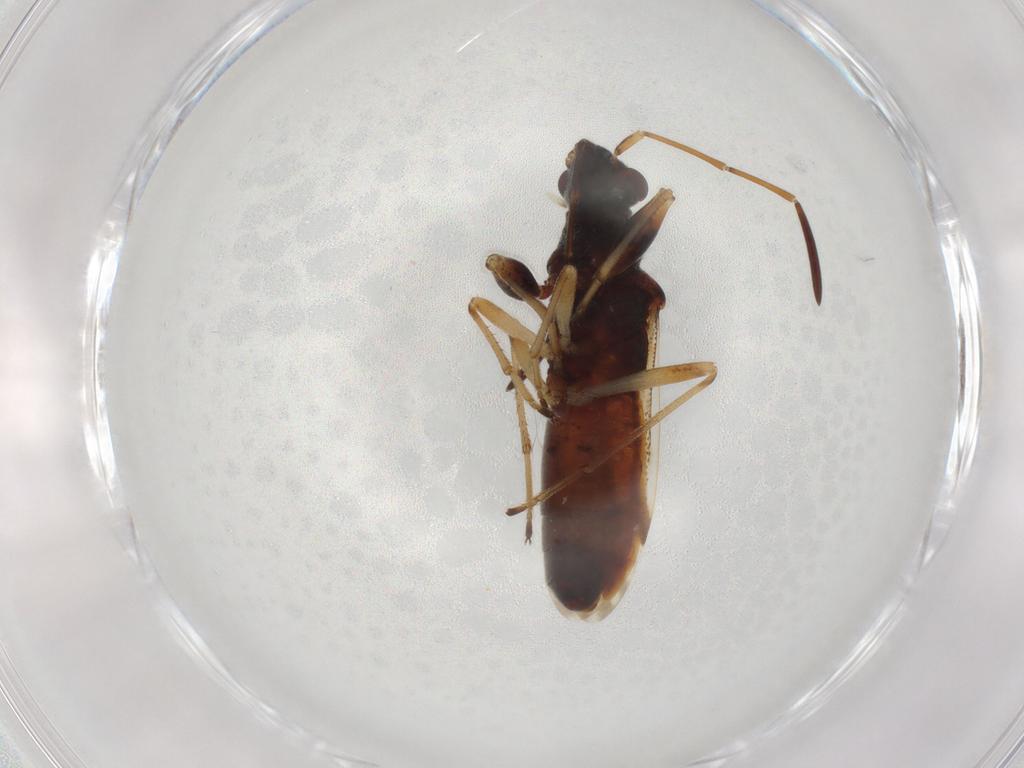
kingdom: Animalia
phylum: Arthropoda
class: Insecta
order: Hemiptera
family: Rhyparochromidae
